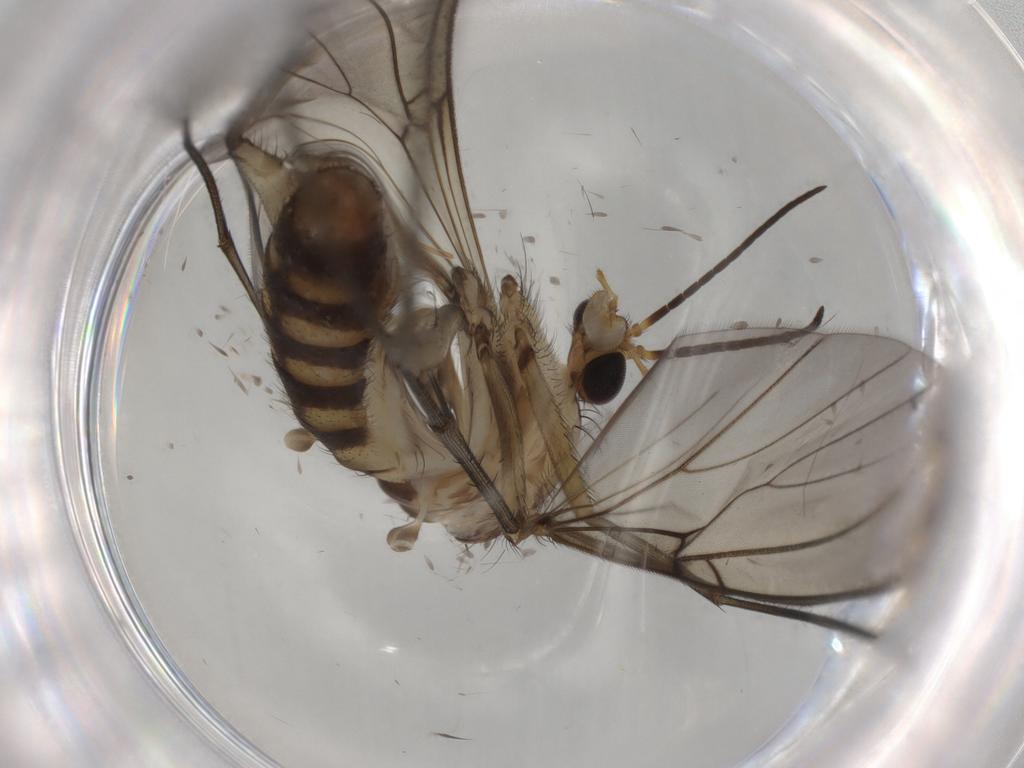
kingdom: Animalia
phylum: Arthropoda
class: Insecta
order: Diptera
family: Mycetophilidae
